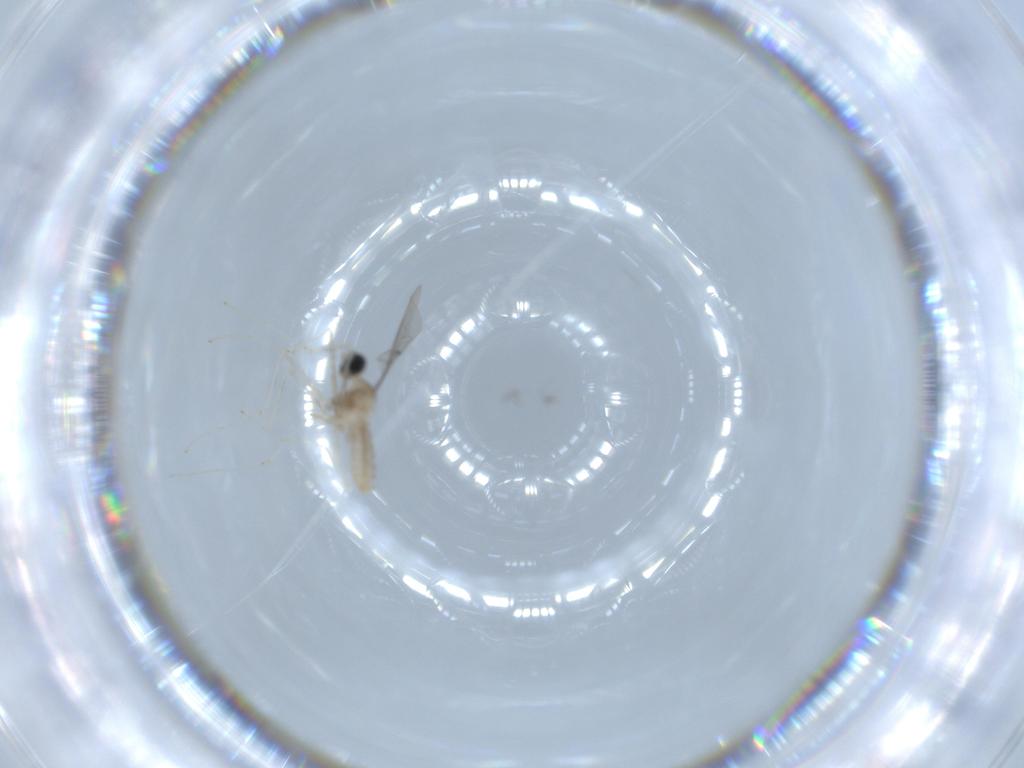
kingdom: Animalia
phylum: Arthropoda
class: Insecta
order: Diptera
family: Cecidomyiidae
